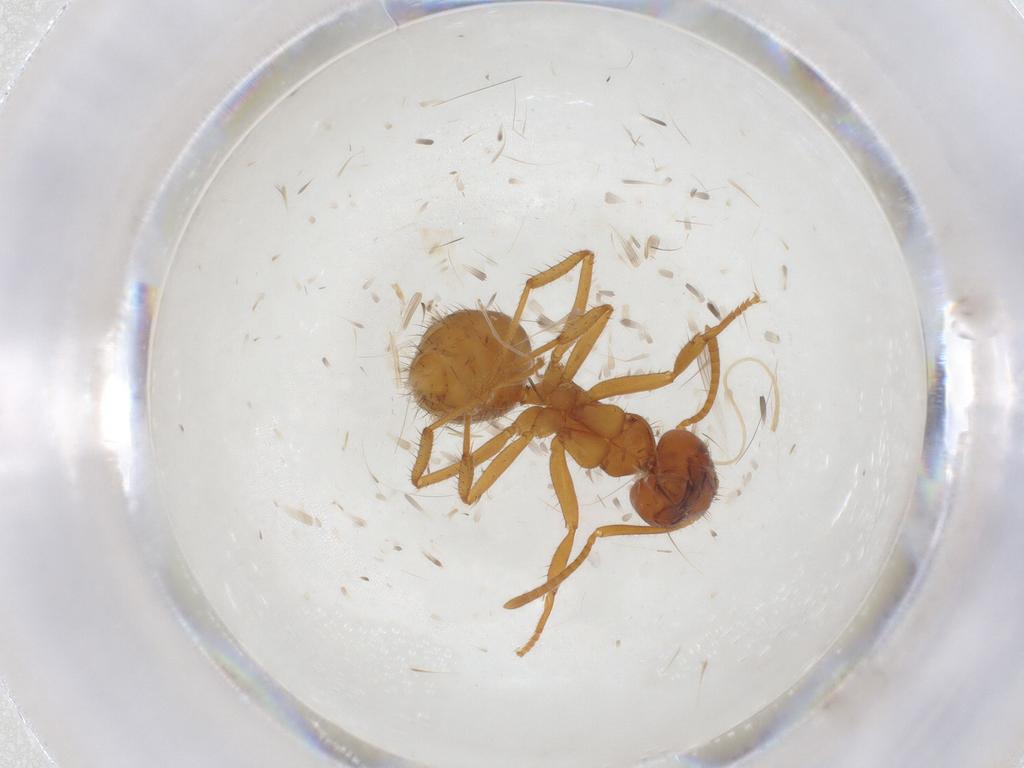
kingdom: Animalia
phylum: Arthropoda
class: Insecta
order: Hymenoptera
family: Formicidae
